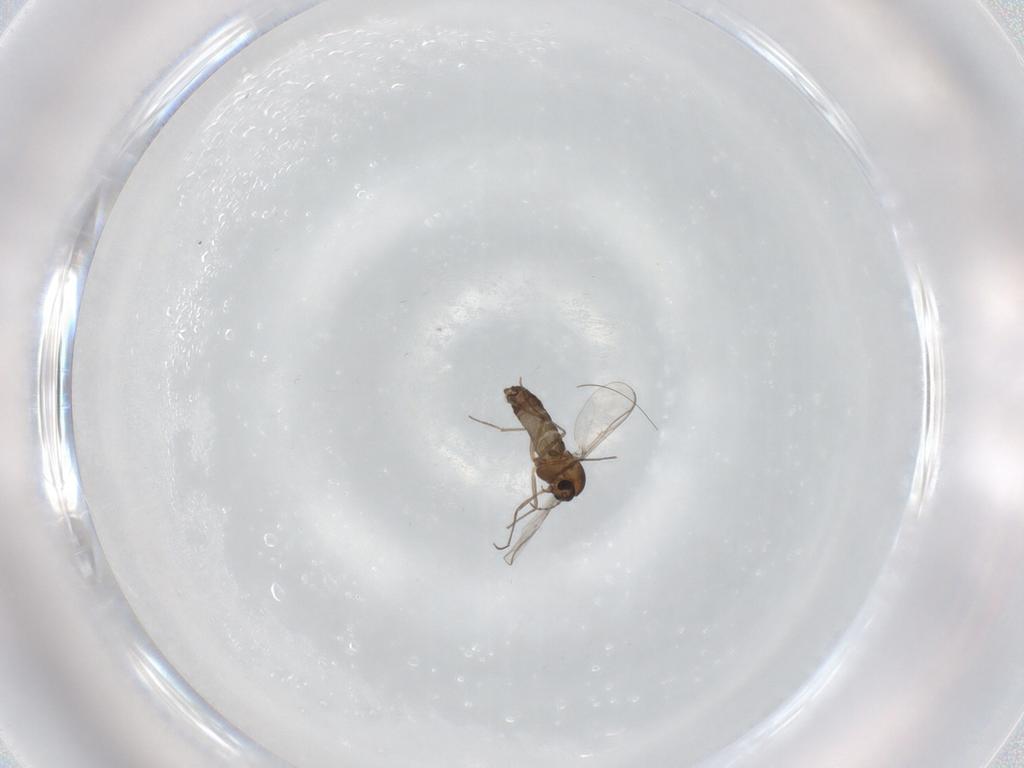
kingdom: Animalia
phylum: Arthropoda
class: Insecta
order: Diptera
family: Chironomidae
